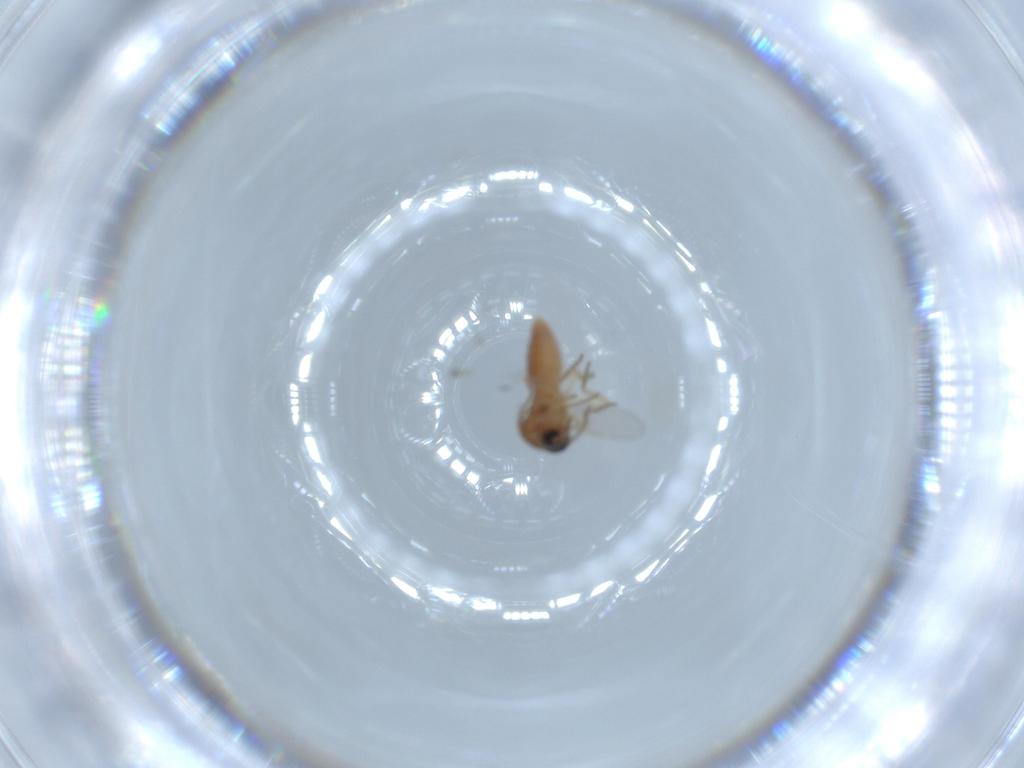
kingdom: Animalia
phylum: Arthropoda
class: Insecta
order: Diptera
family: Ceratopogonidae
